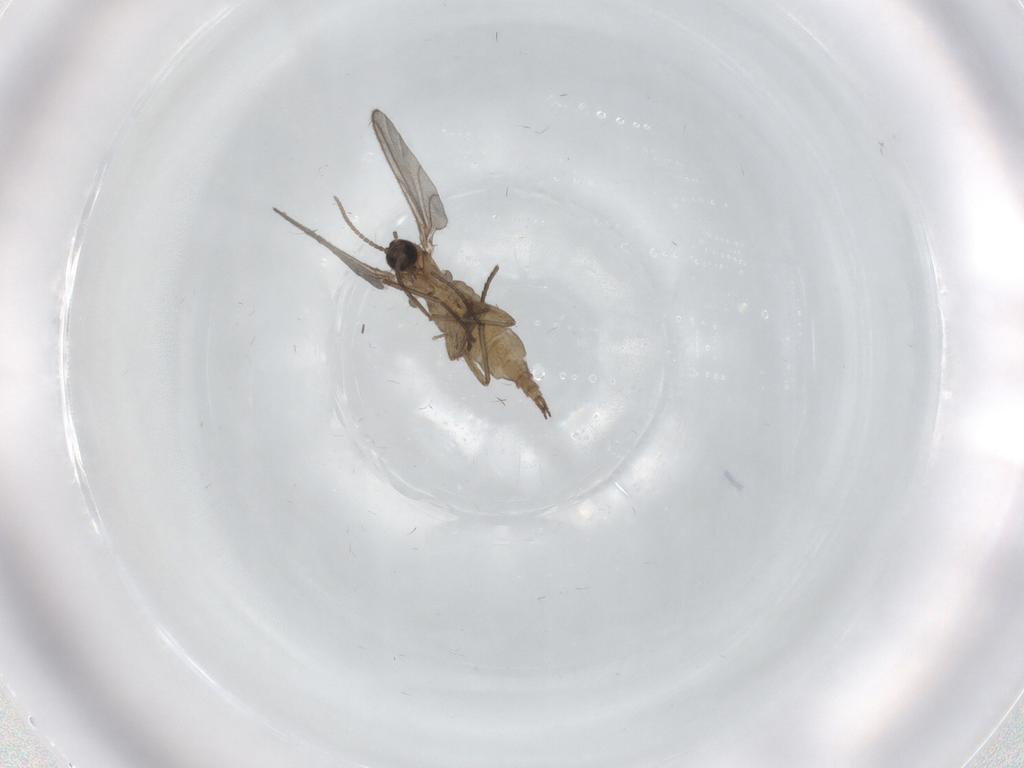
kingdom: Animalia
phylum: Arthropoda
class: Insecta
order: Diptera
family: Sciaridae
